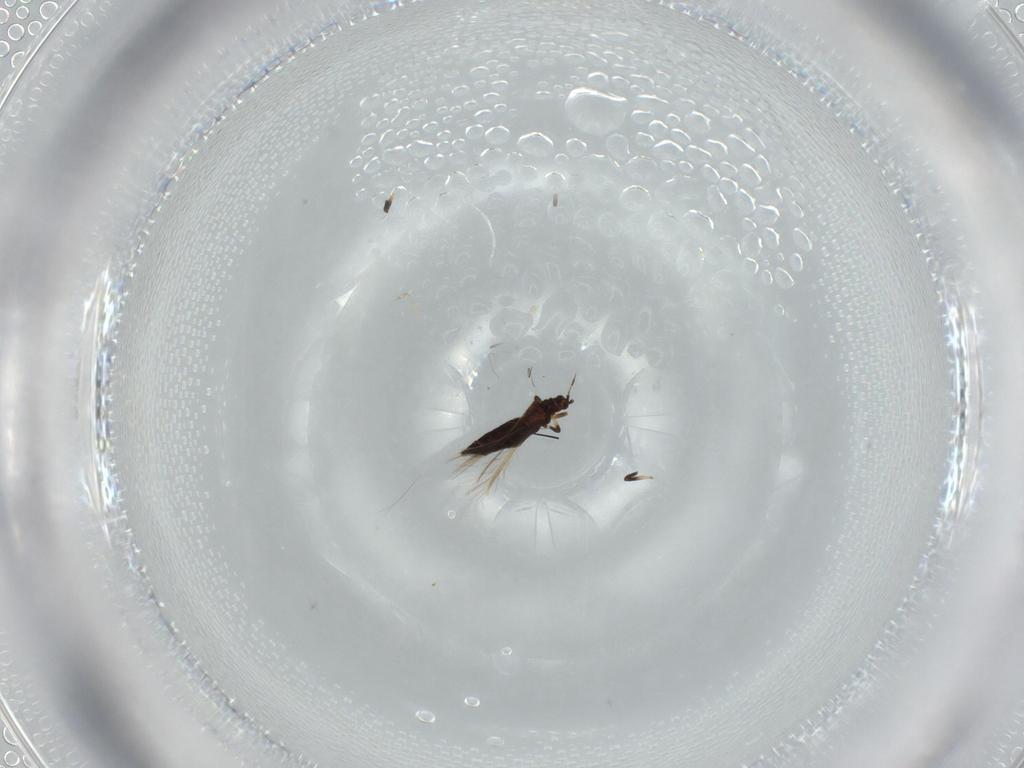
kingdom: Animalia
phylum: Arthropoda
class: Insecta
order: Thysanoptera
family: Thripidae
